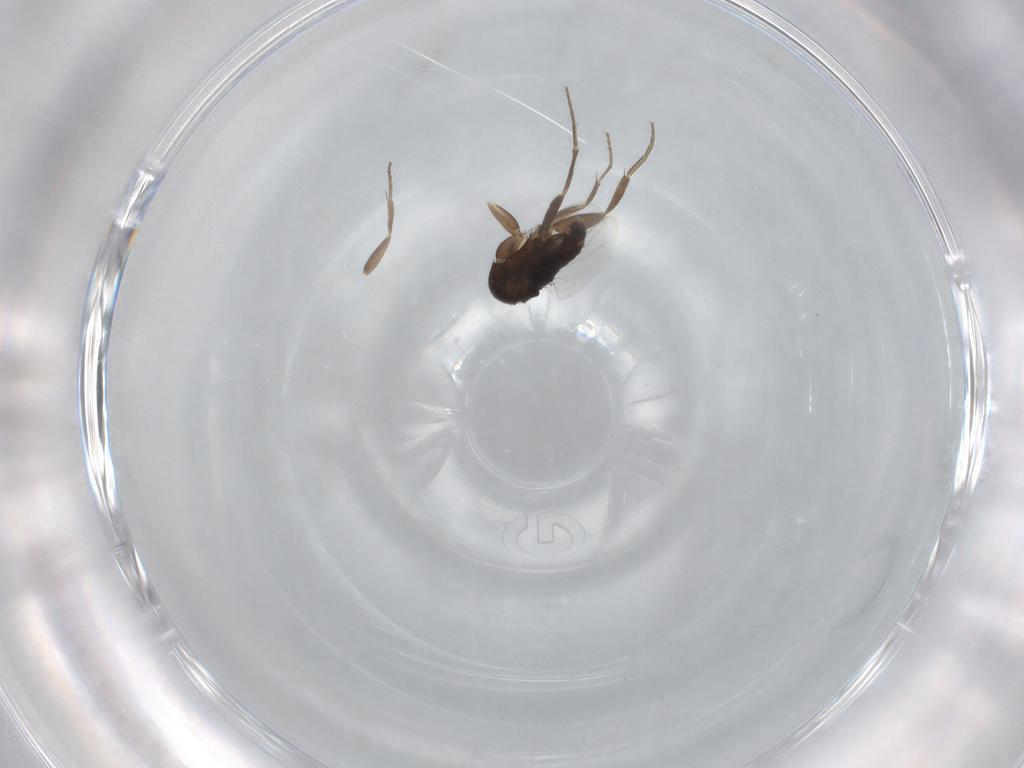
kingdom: Animalia
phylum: Arthropoda
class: Insecta
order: Diptera
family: Phoridae
